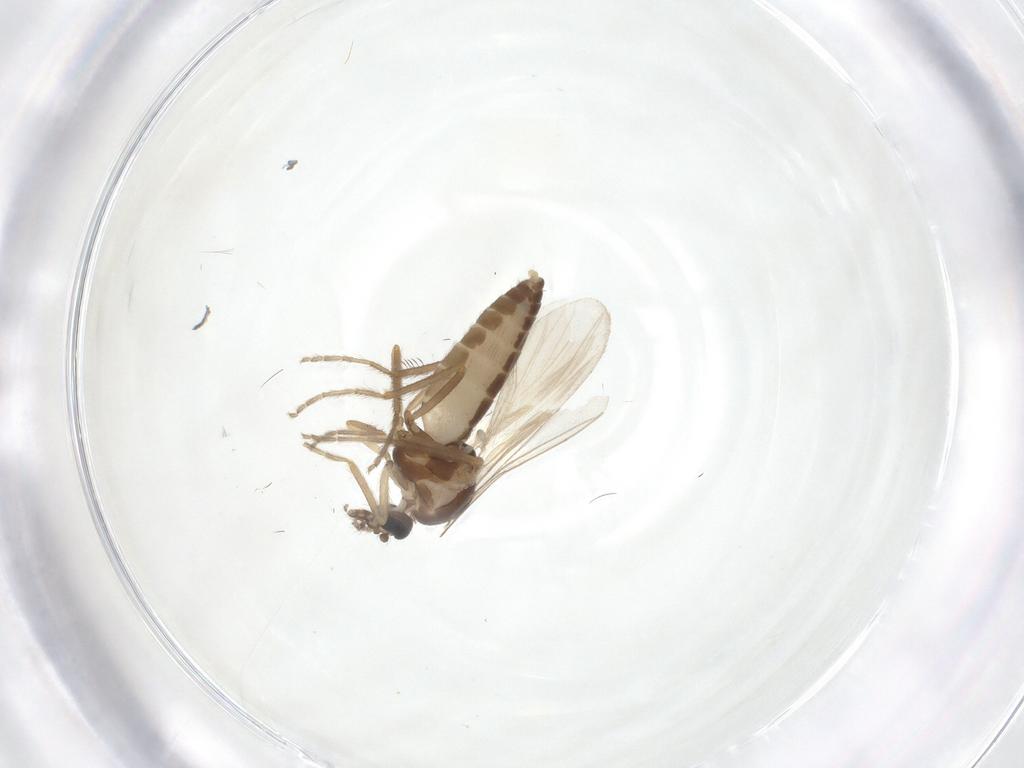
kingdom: Animalia
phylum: Arthropoda
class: Insecta
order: Diptera
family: Ceratopogonidae
